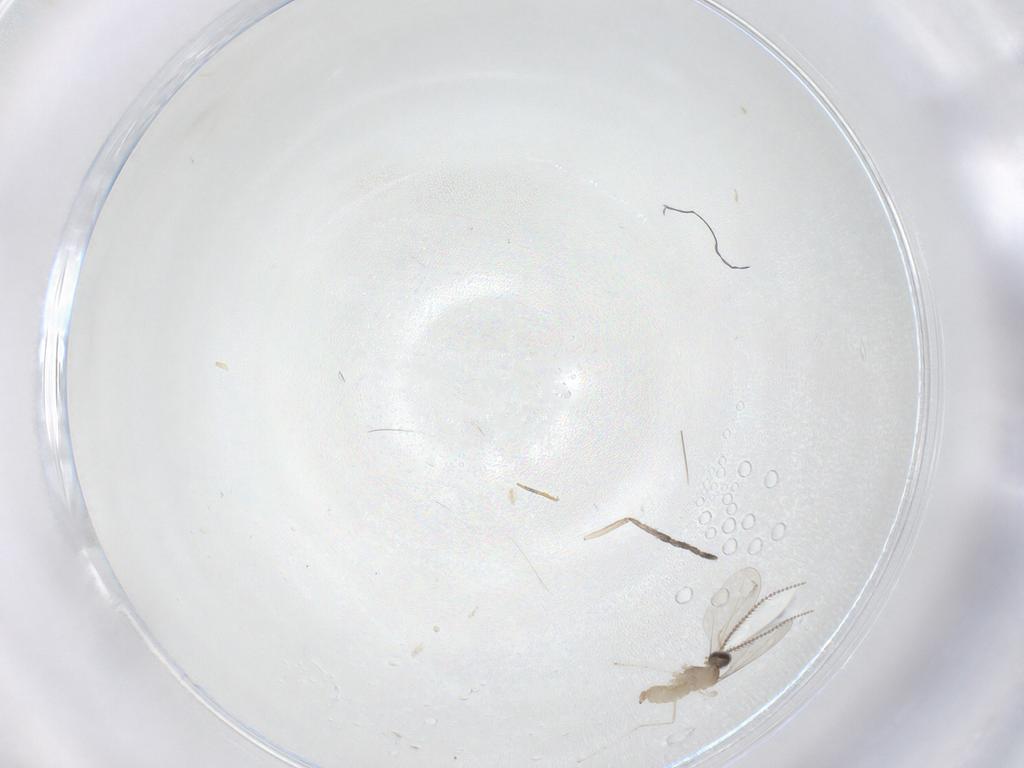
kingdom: Animalia
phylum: Arthropoda
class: Insecta
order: Diptera
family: Cecidomyiidae
